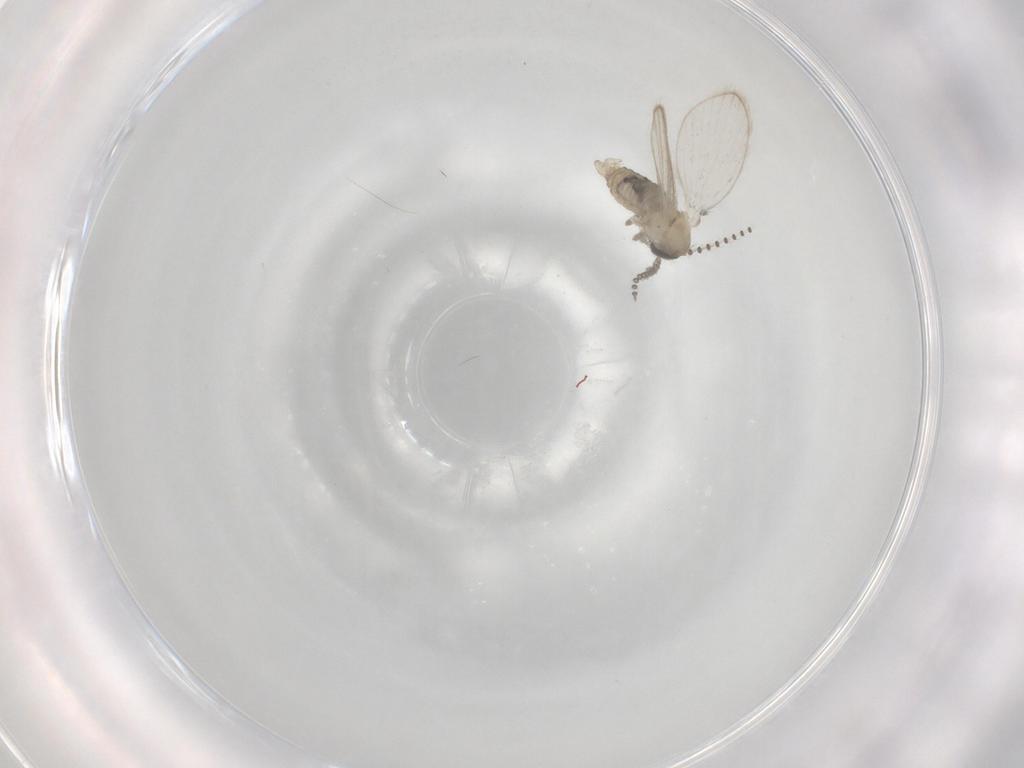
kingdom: Animalia
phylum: Arthropoda
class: Insecta
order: Diptera
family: Psychodidae
